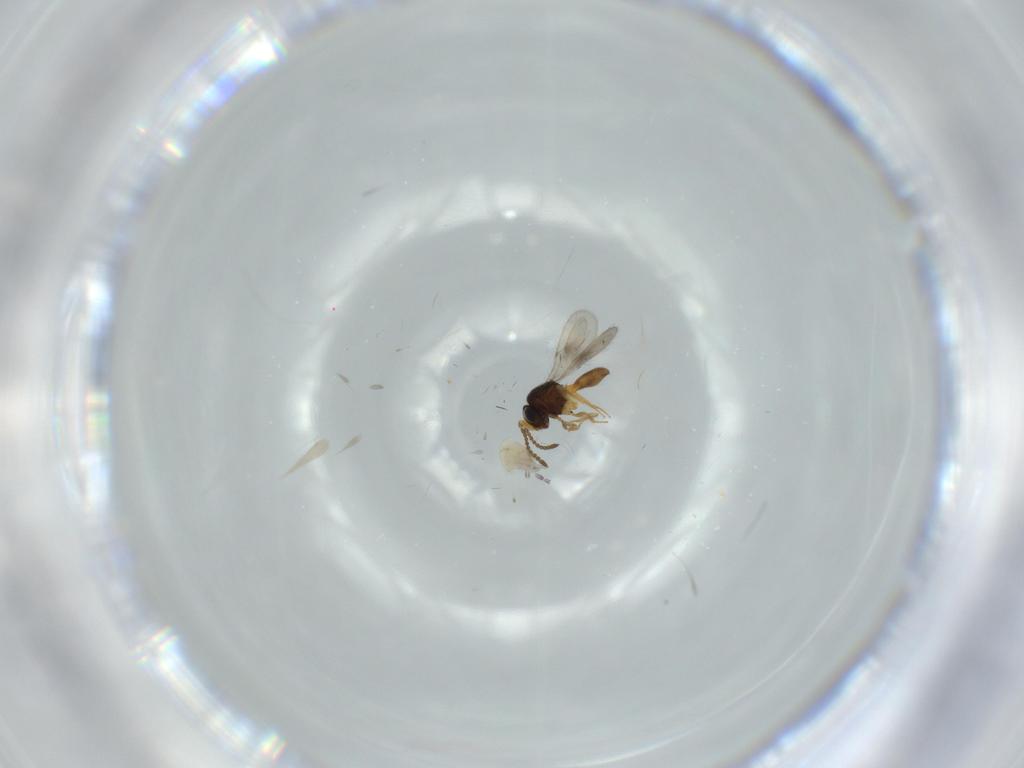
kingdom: Animalia
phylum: Arthropoda
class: Insecta
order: Hymenoptera
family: Scelionidae
